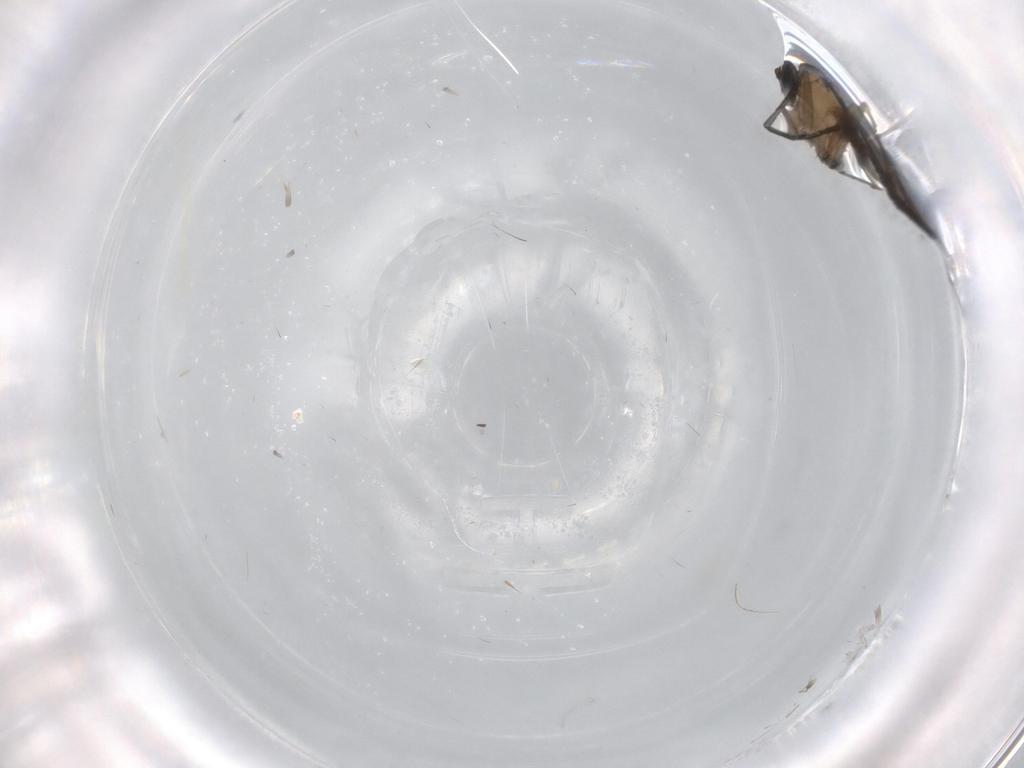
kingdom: Animalia
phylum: Arthropoda
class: Insecta
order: Diptera
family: Sciaridae
